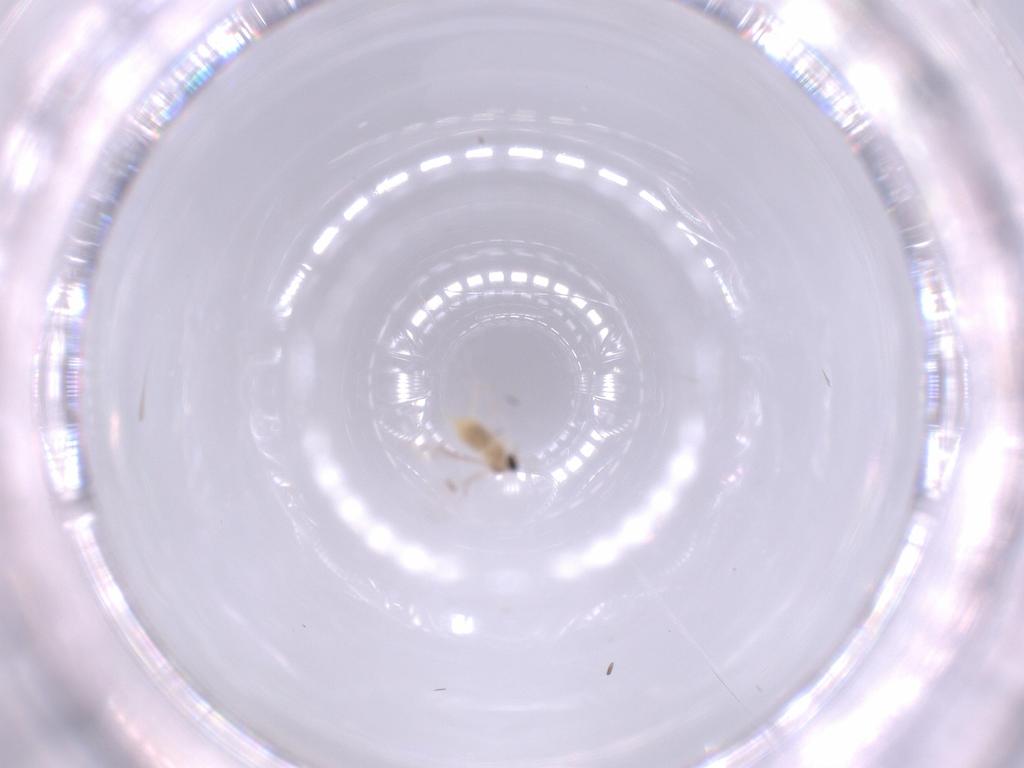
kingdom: Animalia
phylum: Arthropoda
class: Insecta
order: Diptera
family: Cecidomyiidae
